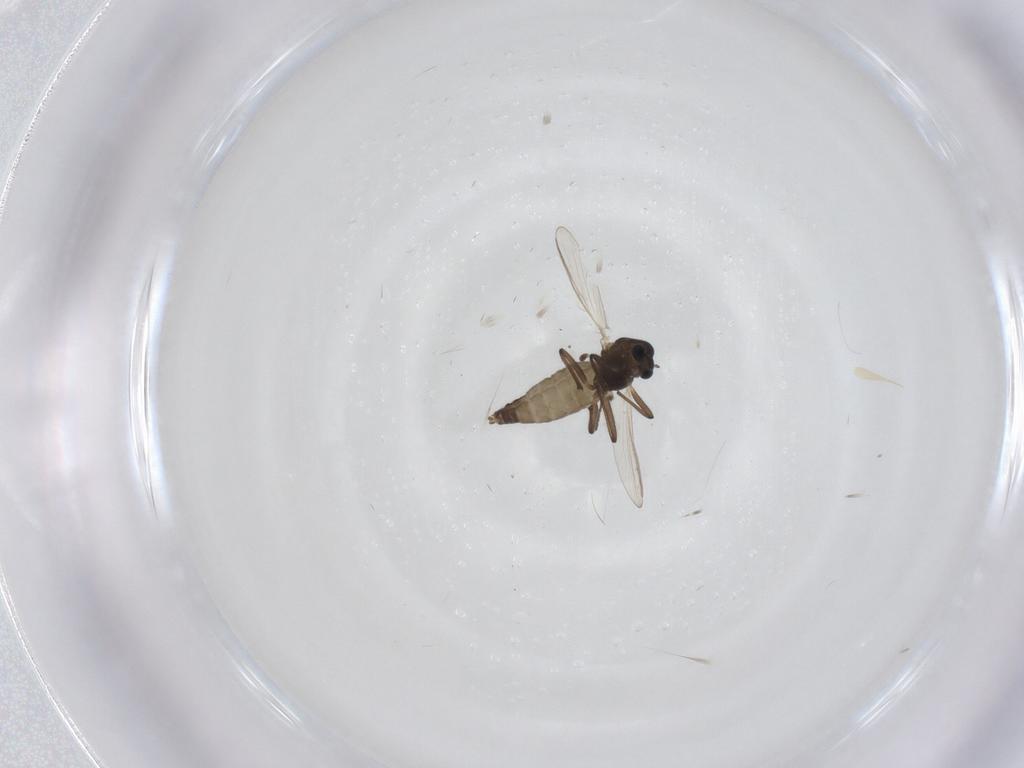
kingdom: Animalia
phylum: Arthropoda
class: Insecta
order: Diptera
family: Chironomidae
